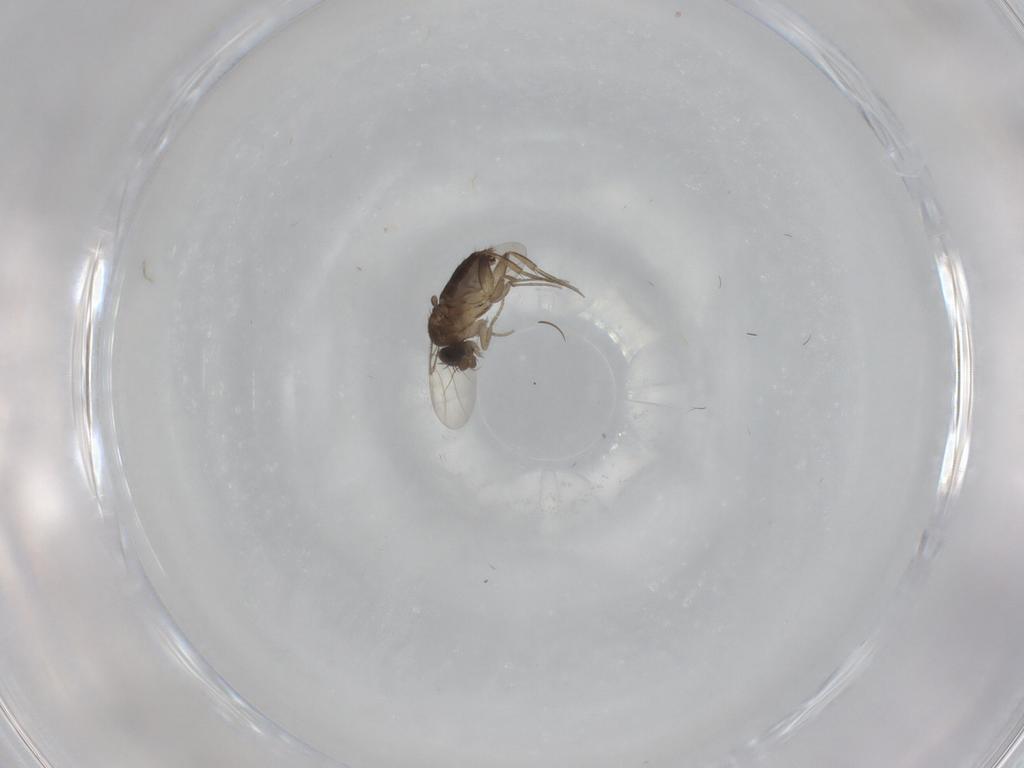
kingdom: Animalia
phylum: Arthropoda
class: Insecta
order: Diptera
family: Phoridae
